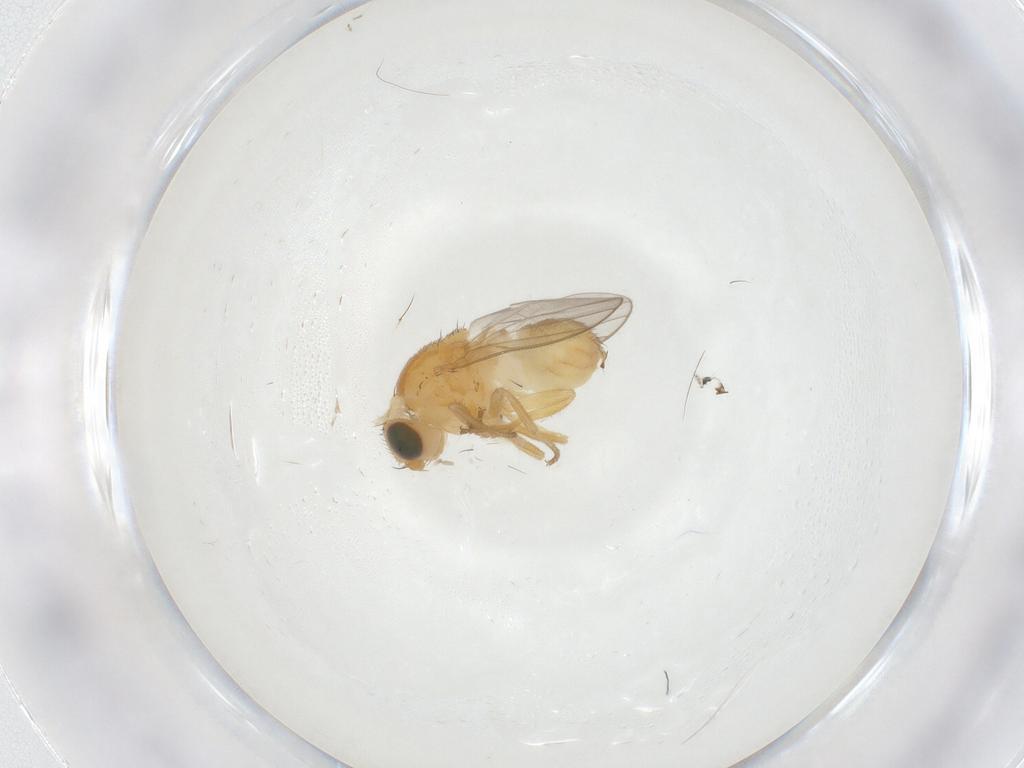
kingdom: Animalia
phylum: Arthropoda
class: Insecta
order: Diptera
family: Chloropidae
